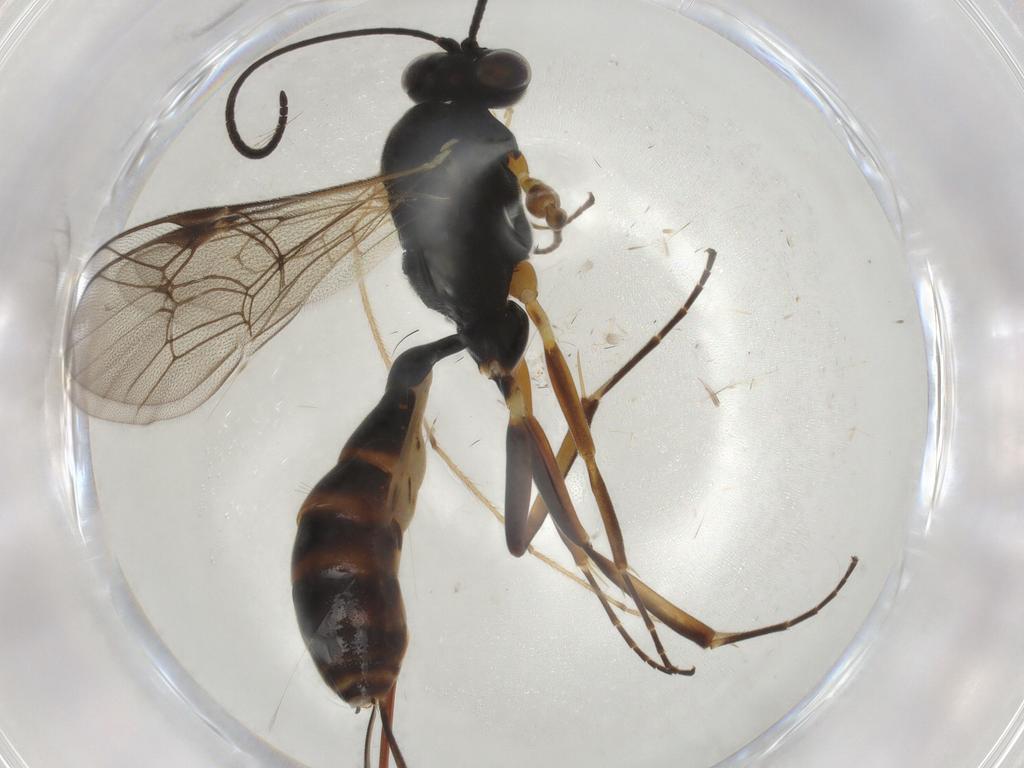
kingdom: Animalia
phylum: Arthropoda
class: Insecta
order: Hymenoptera
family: Ichneumonidae
